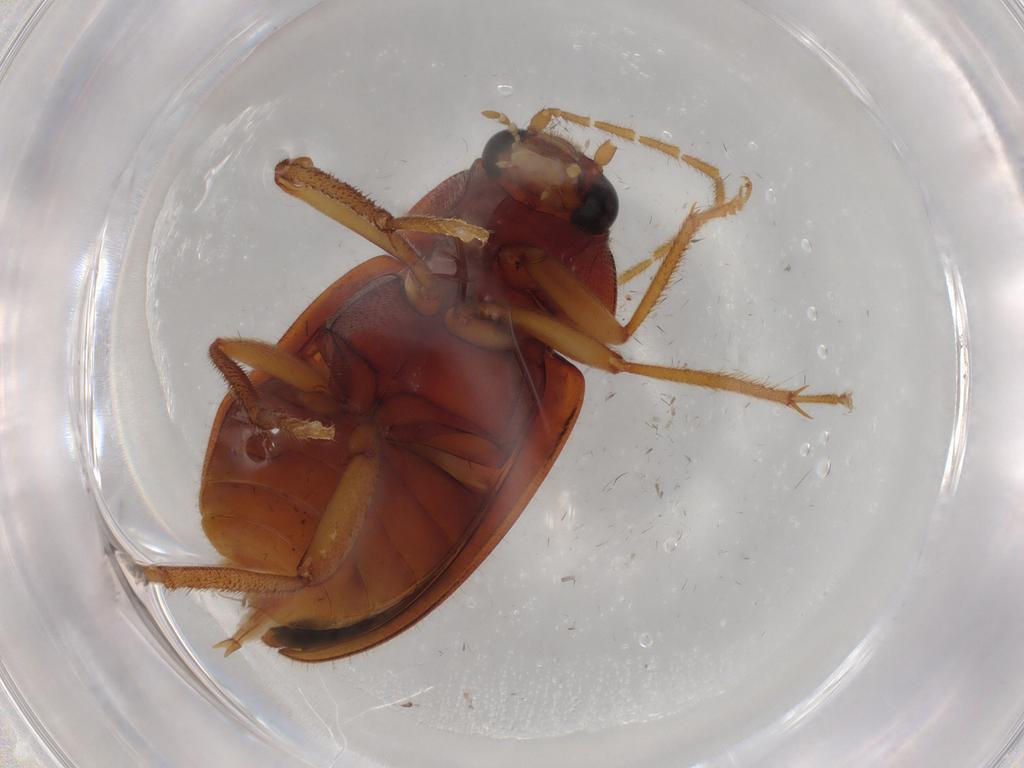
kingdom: Animalia
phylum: Arthropoda
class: Insecta
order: Coleoptera
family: Ptilodactylidae
